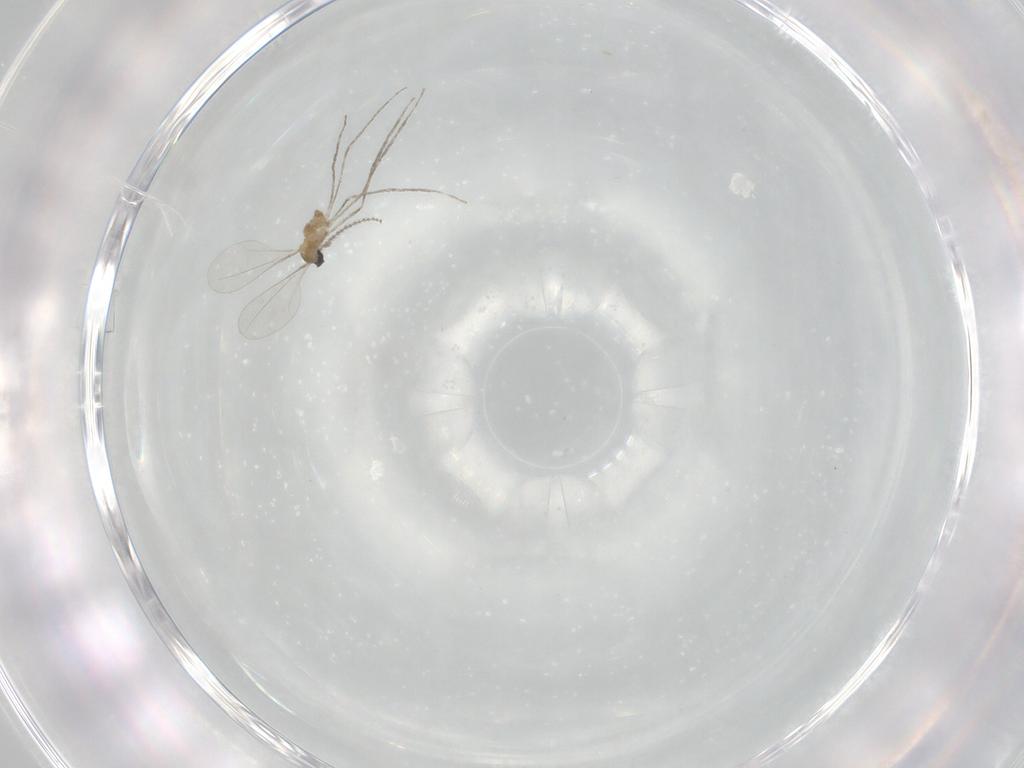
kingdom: Animalia
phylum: Arthropoda
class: Insecta
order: Diptera
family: Cecidomyiidae
